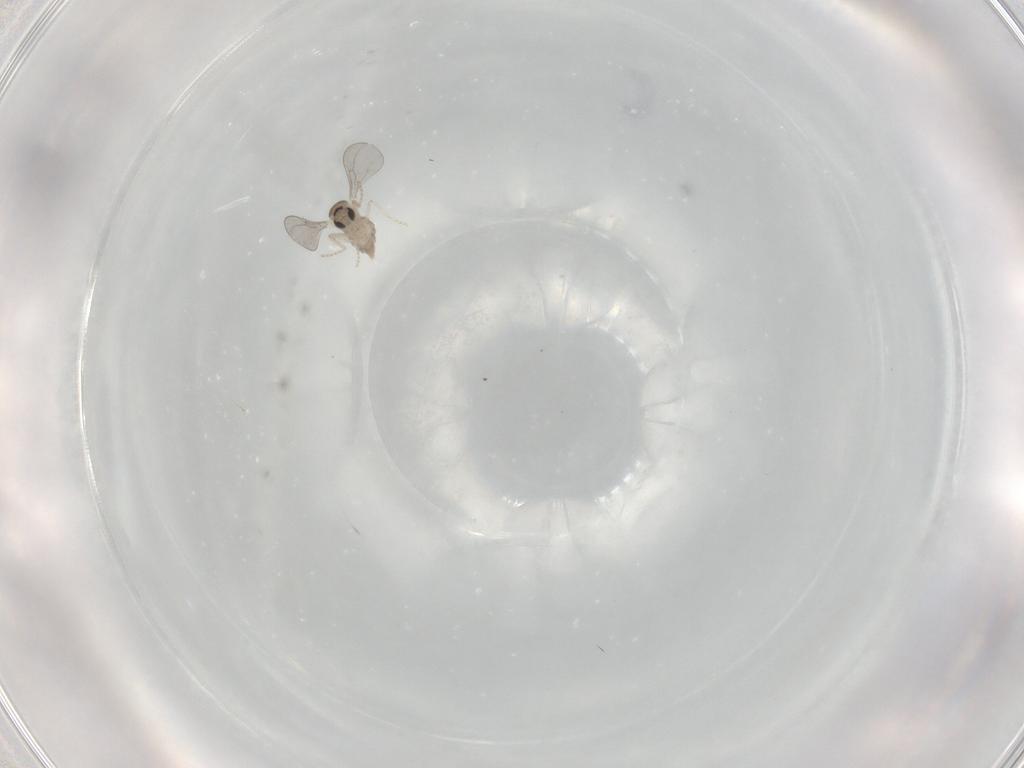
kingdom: Animalia
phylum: Arthropoda
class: Insecta
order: Diptera
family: Cecidomyiidae
